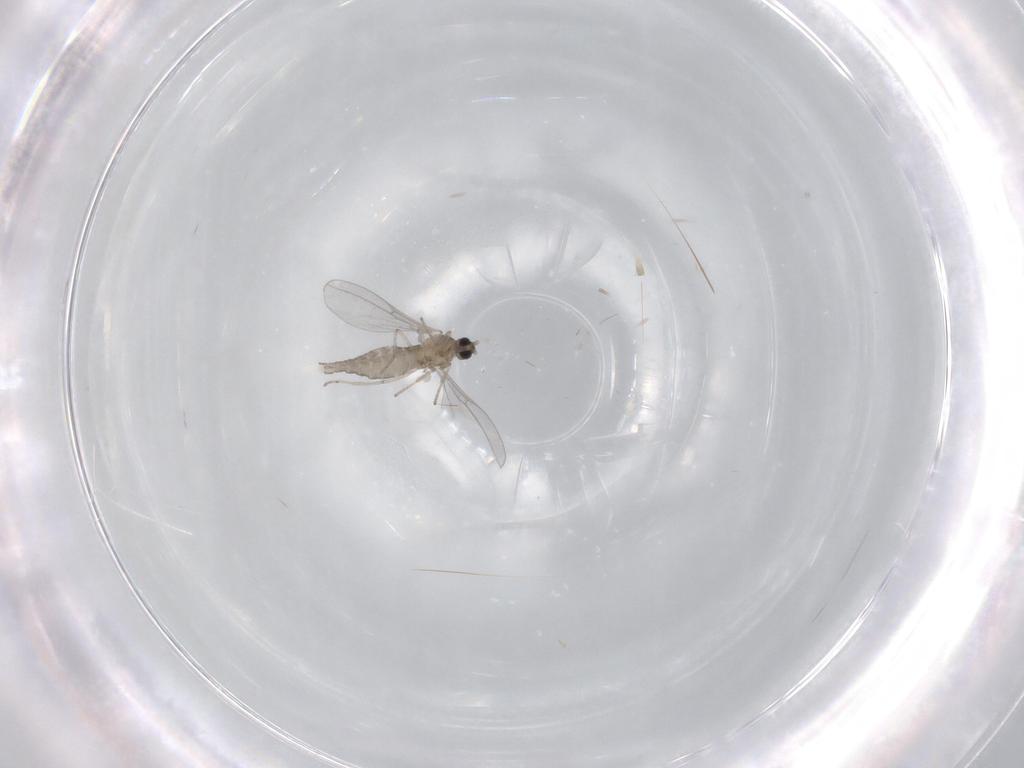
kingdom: Animalia
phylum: Arthropoda
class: Insecta
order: Diptera
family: Cecidomyiidae
